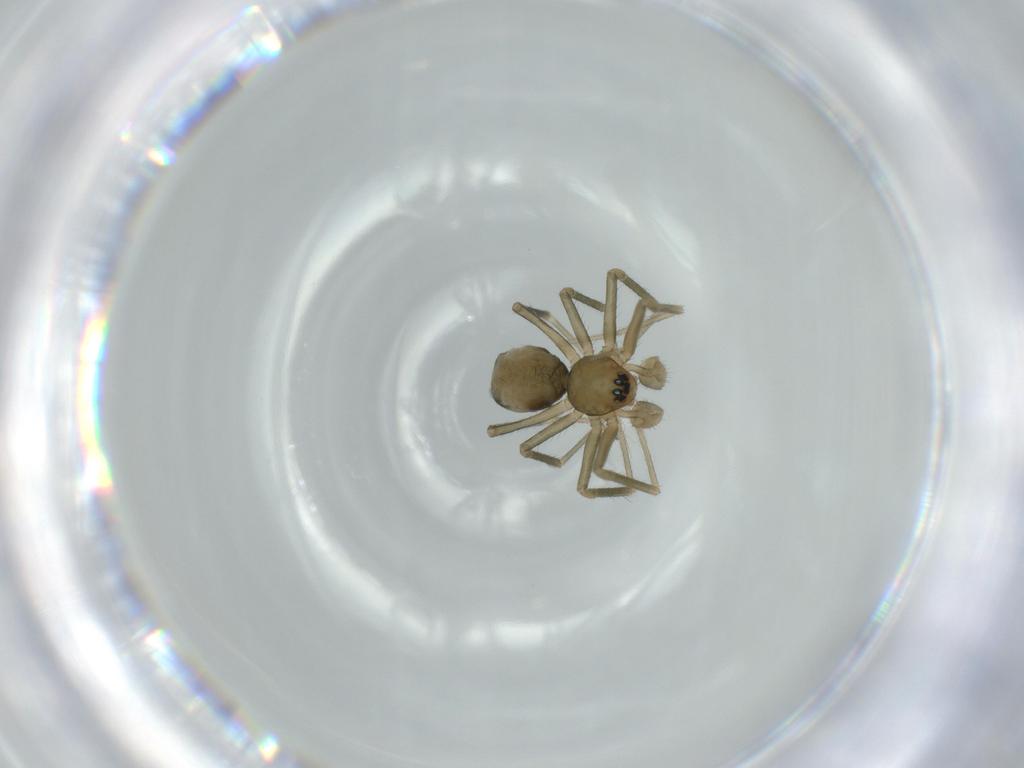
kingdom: Animalia
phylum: Arthropoda
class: Arachnida
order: Araneae
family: Linyphiidae
